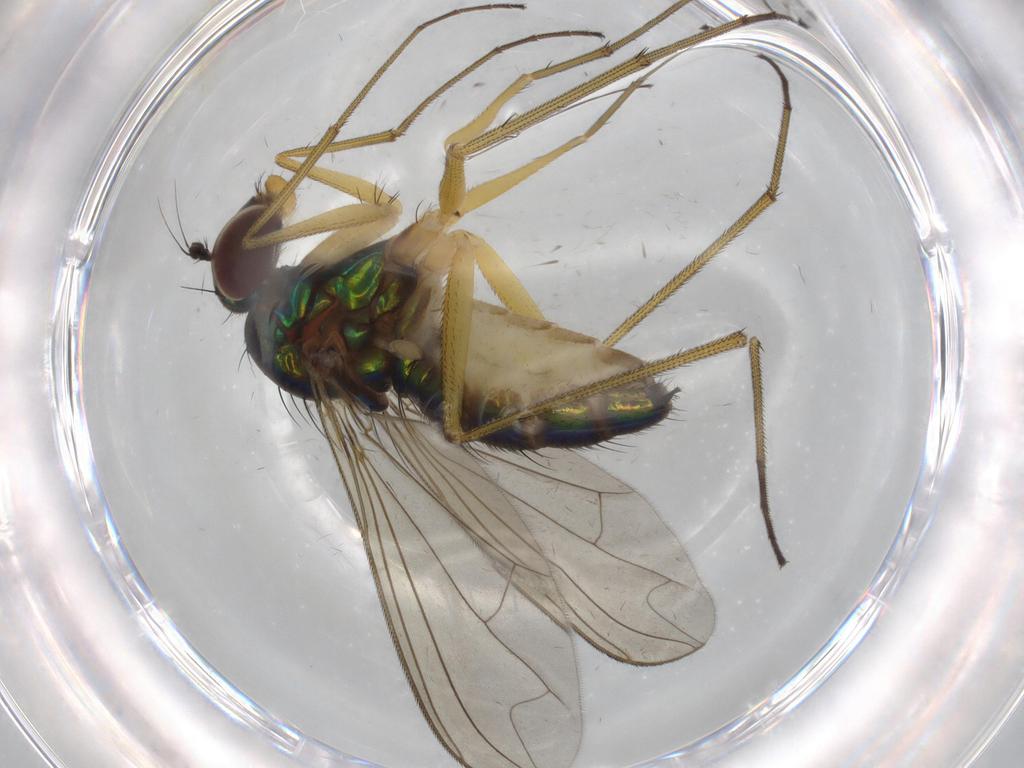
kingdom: Animalia
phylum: Arthropoda
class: Insecta
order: Diptera
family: Dolichopodidae
